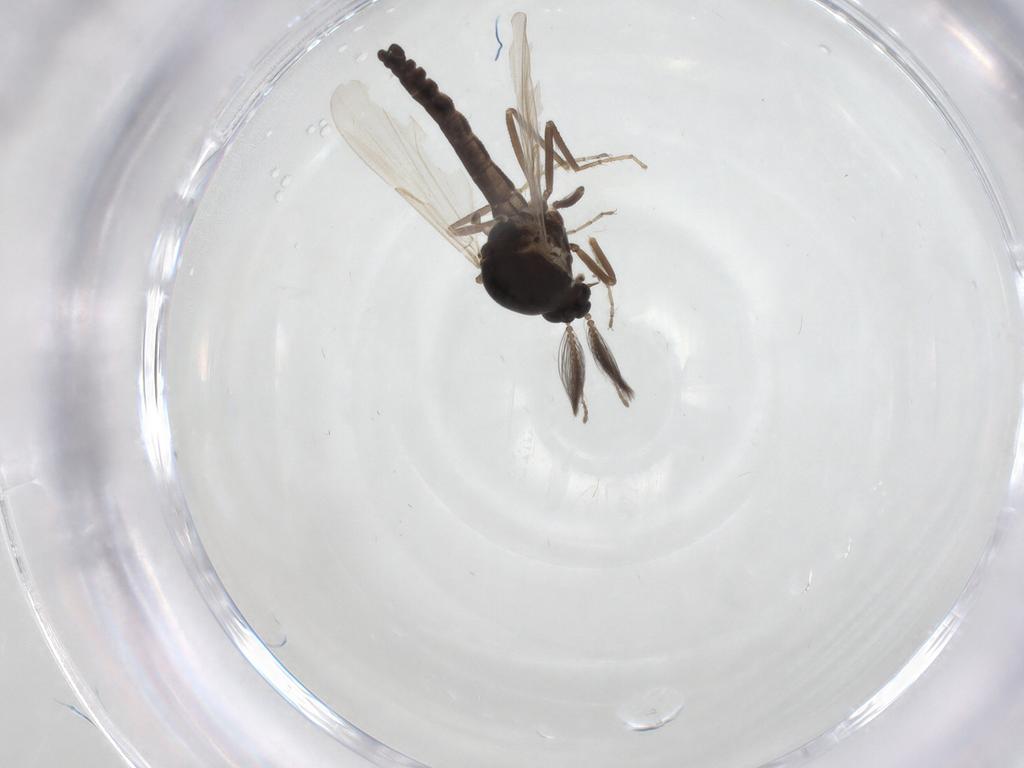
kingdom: Animalia
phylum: Arthropoda
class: Insecta
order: Diptera
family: Ceratopogonidae
